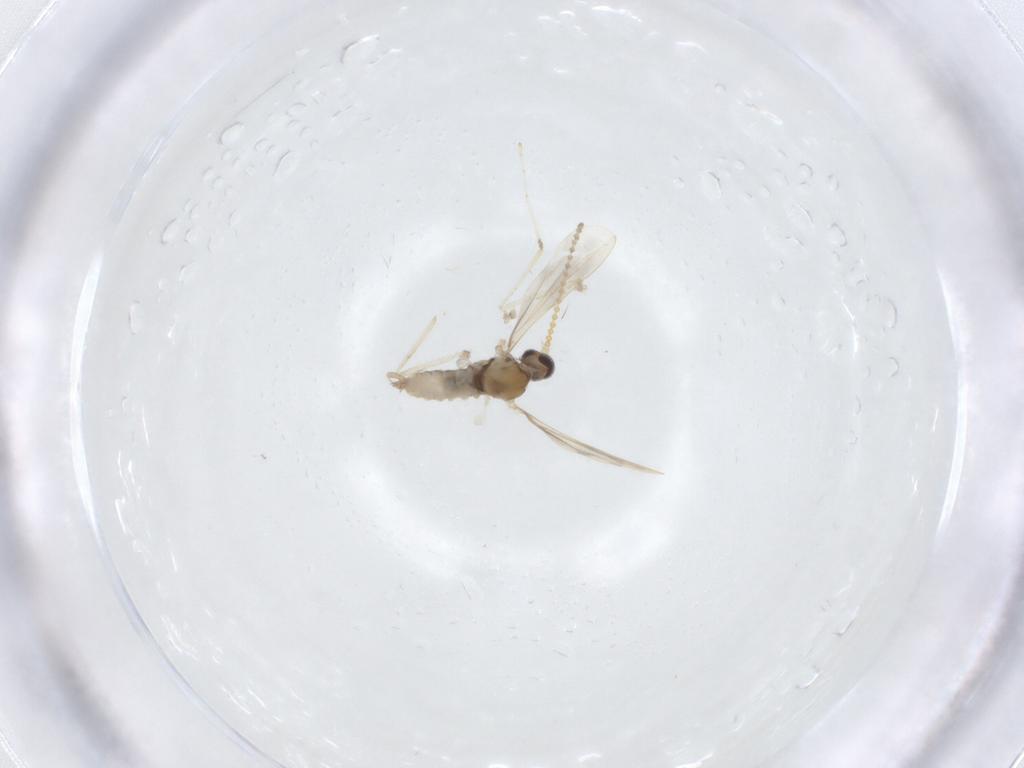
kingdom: Animalia
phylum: Arthropoda
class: Insecta
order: Diptera
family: Cecidomyiidae
